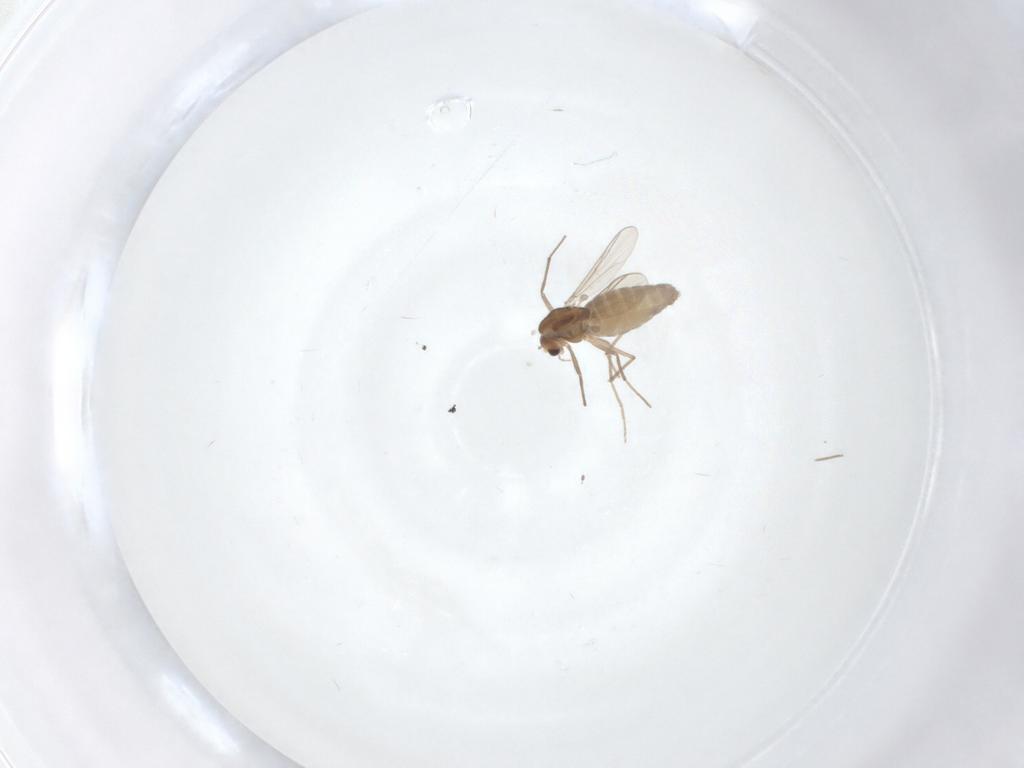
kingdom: Animalia
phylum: Arthropoda
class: Insecta
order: Diptera
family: Chironomidae
